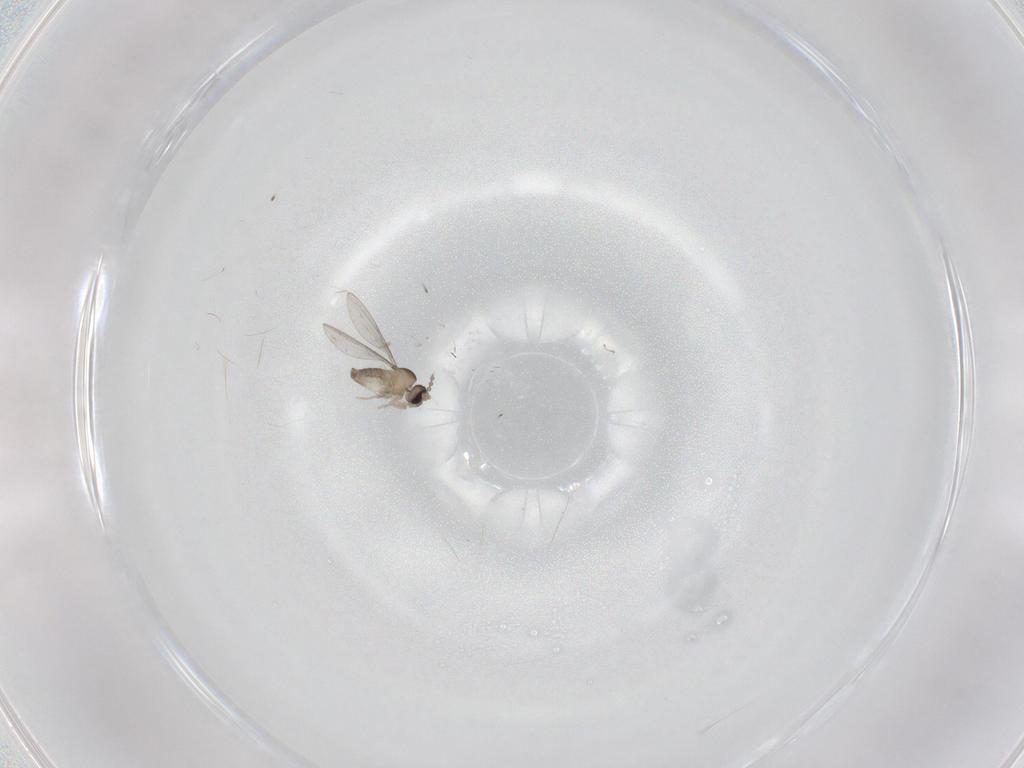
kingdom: Animalia
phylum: Arthropoda
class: Insecta
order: Diptera
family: Cecidomyiidae
